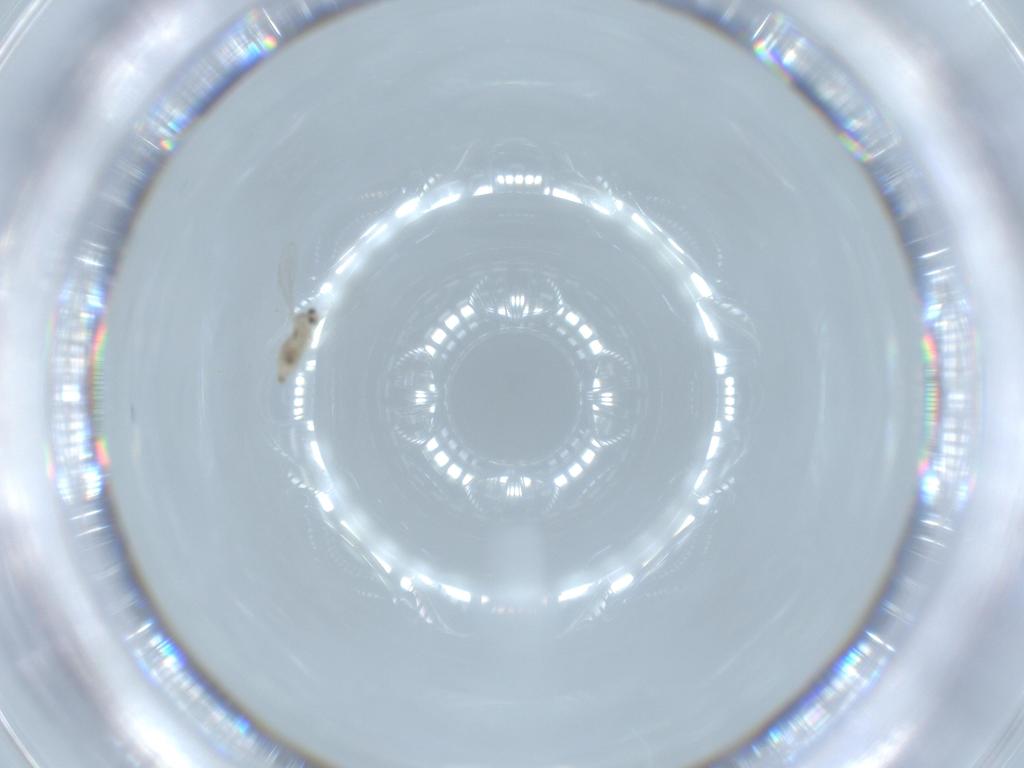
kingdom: Animalia
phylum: Arthropoda
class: Insecta
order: Diptera
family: Cecidomyiidae
